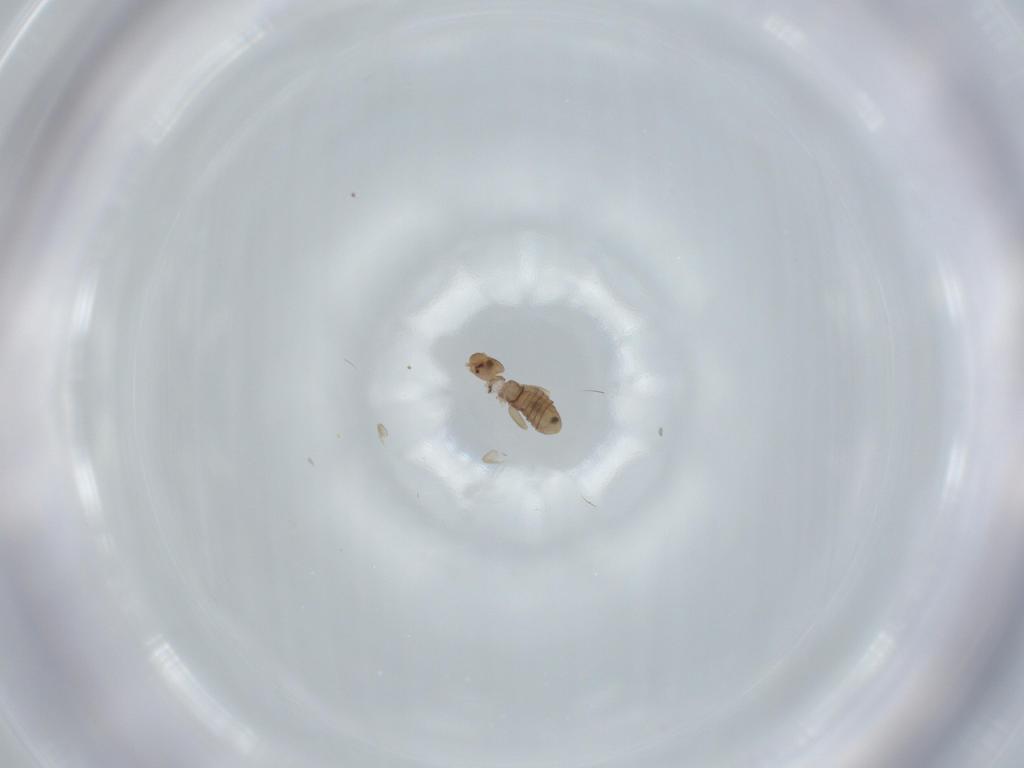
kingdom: Animalia
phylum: Arthropoda
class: Insecta
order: Psocodea
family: Liposcelididae
